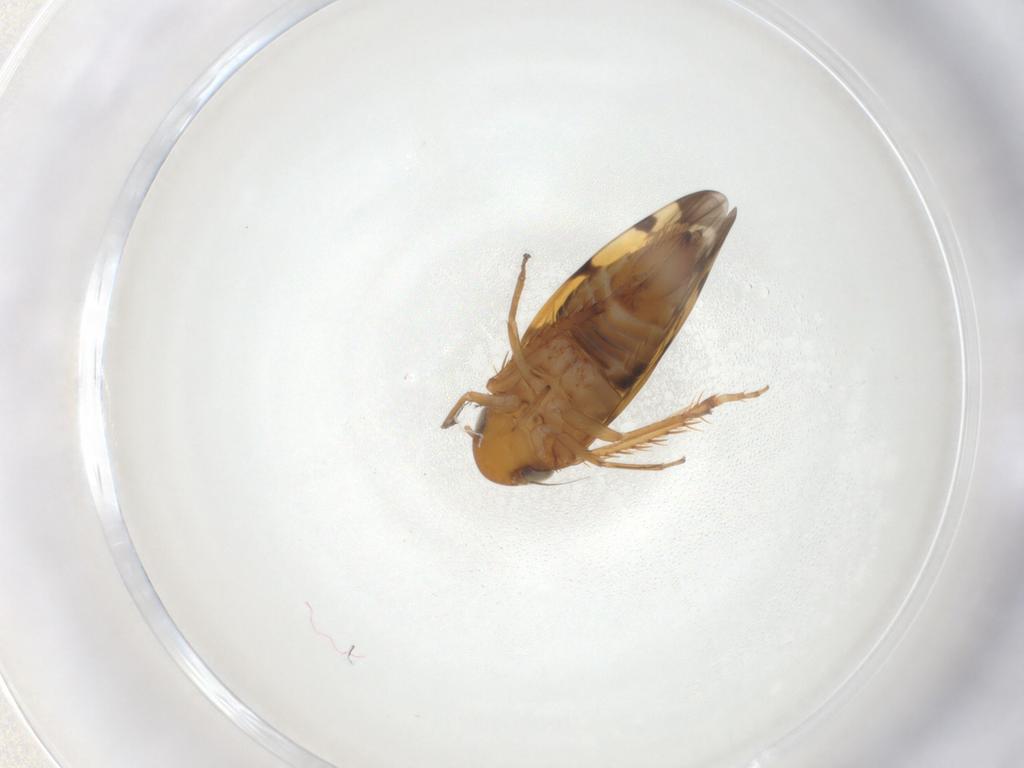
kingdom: Animalia
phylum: Arthropoda
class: Insecta
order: Hemiptera
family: Cicadellidae
